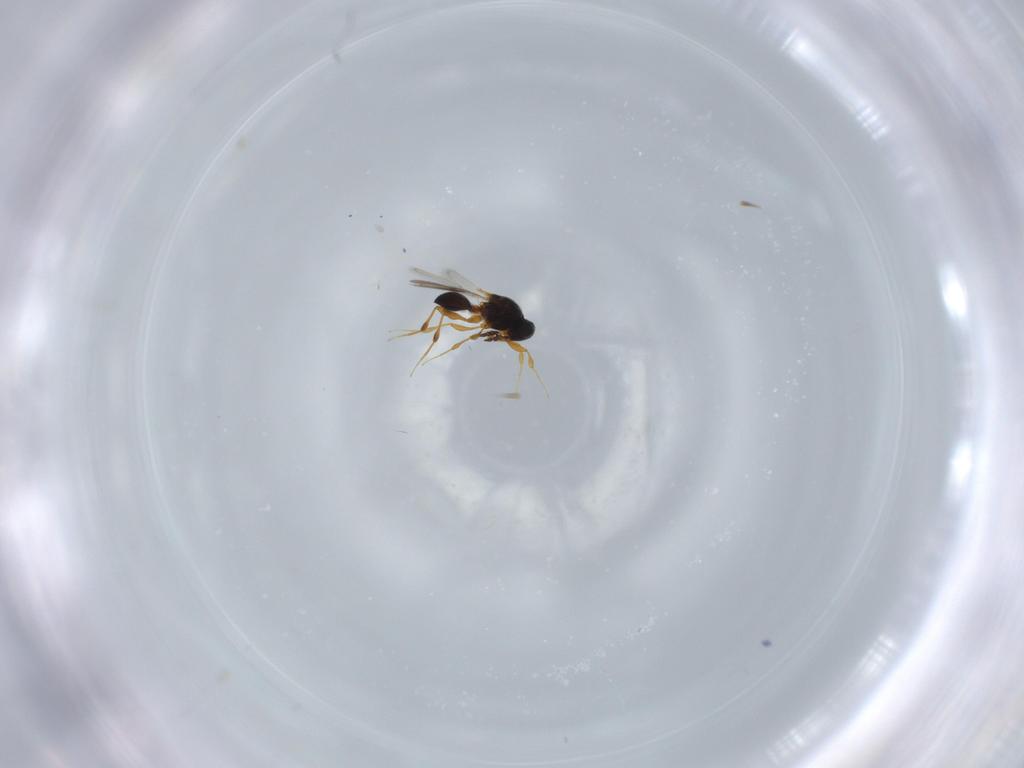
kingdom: Animalia
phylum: Arthropoda
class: Insecta
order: Hymenoptera
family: Platygastridae
